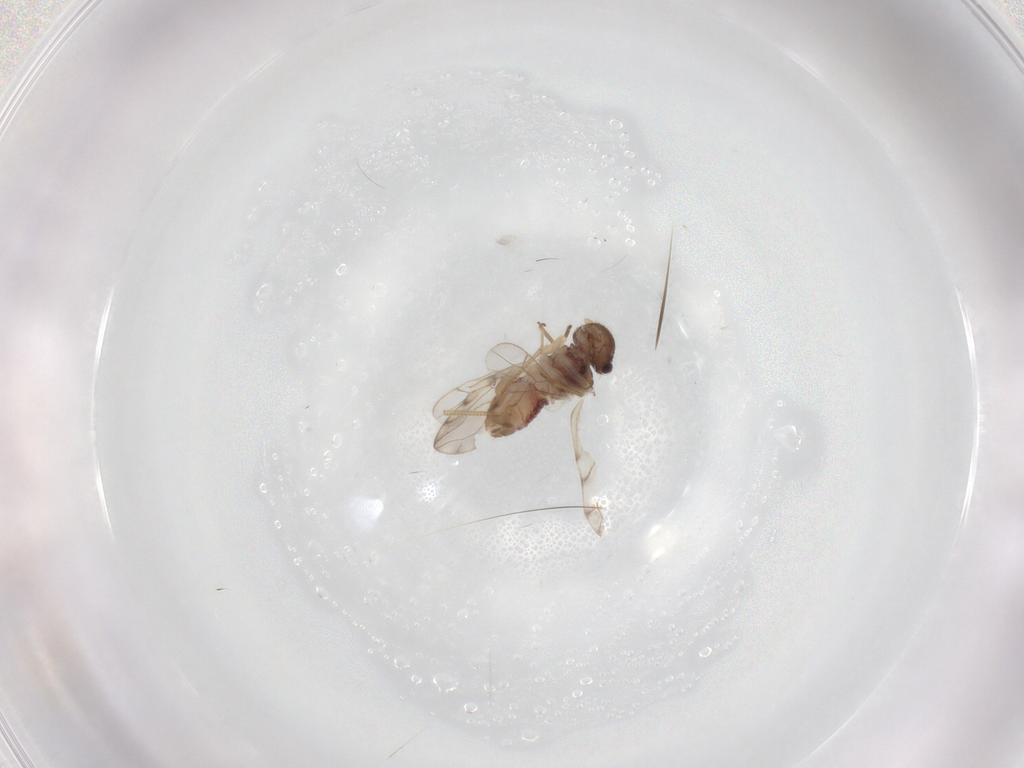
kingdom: Animalia
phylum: Arthropoda
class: Insecta
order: Psocodea
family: Peripsocidae
